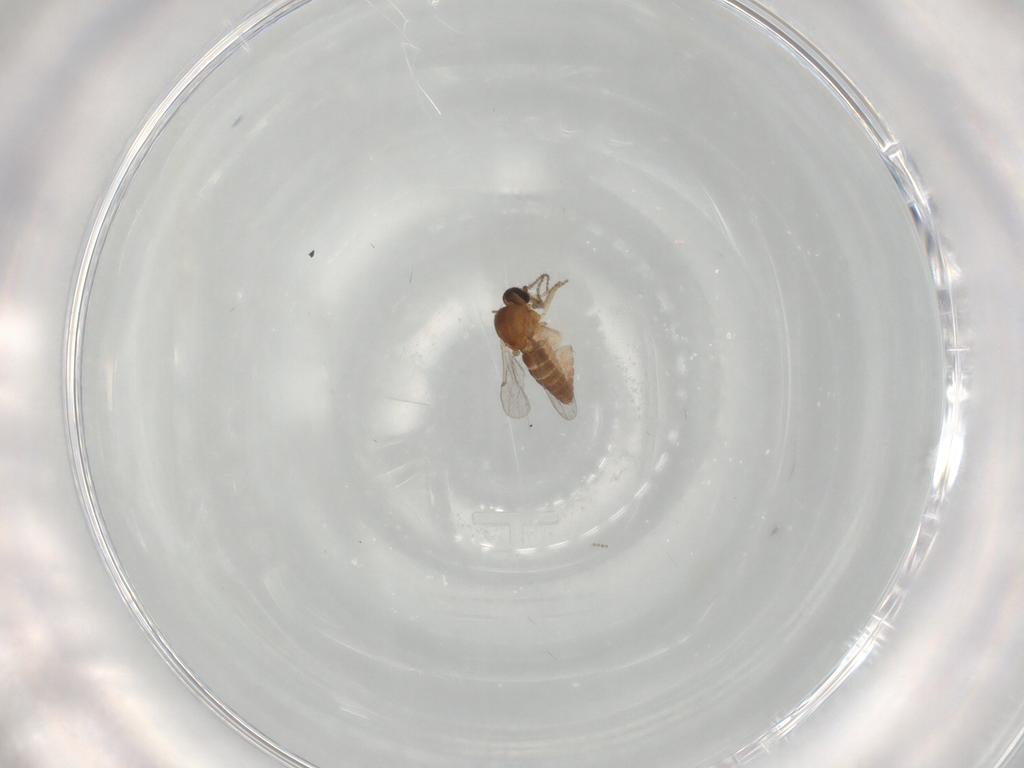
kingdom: Animalia
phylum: Arthropoda
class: Insecta
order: Diptera
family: Ceratopogonidae
